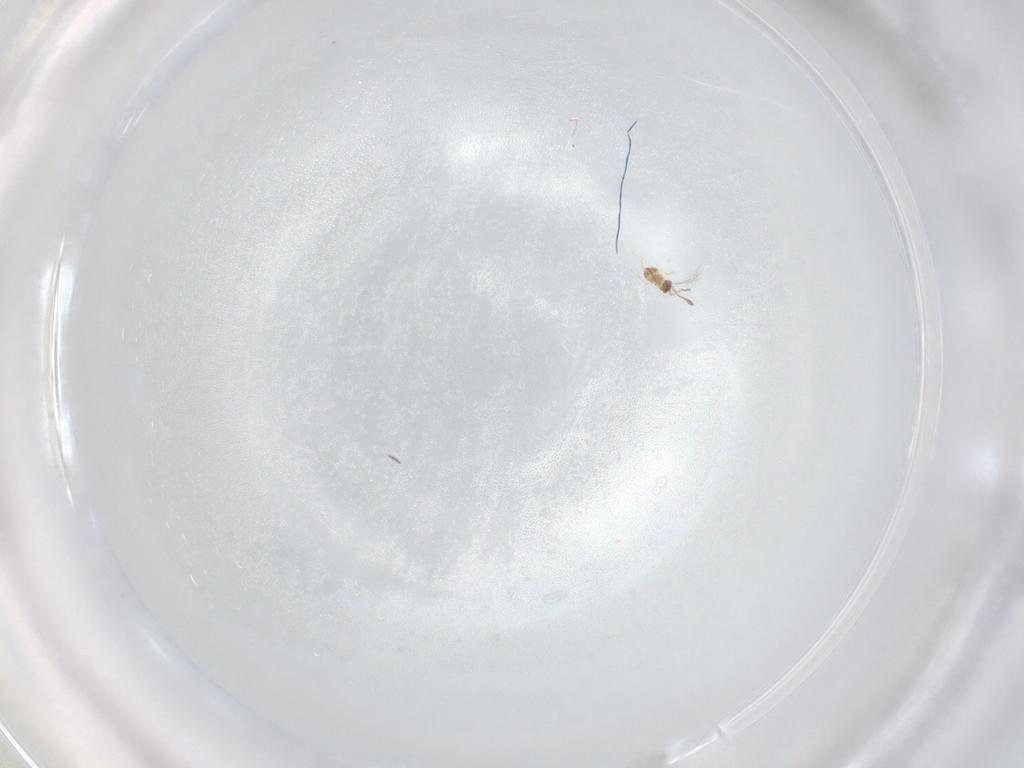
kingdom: Animalia
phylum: Arthropoda
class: Insecta
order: Hymenoptera
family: Mymaridae
